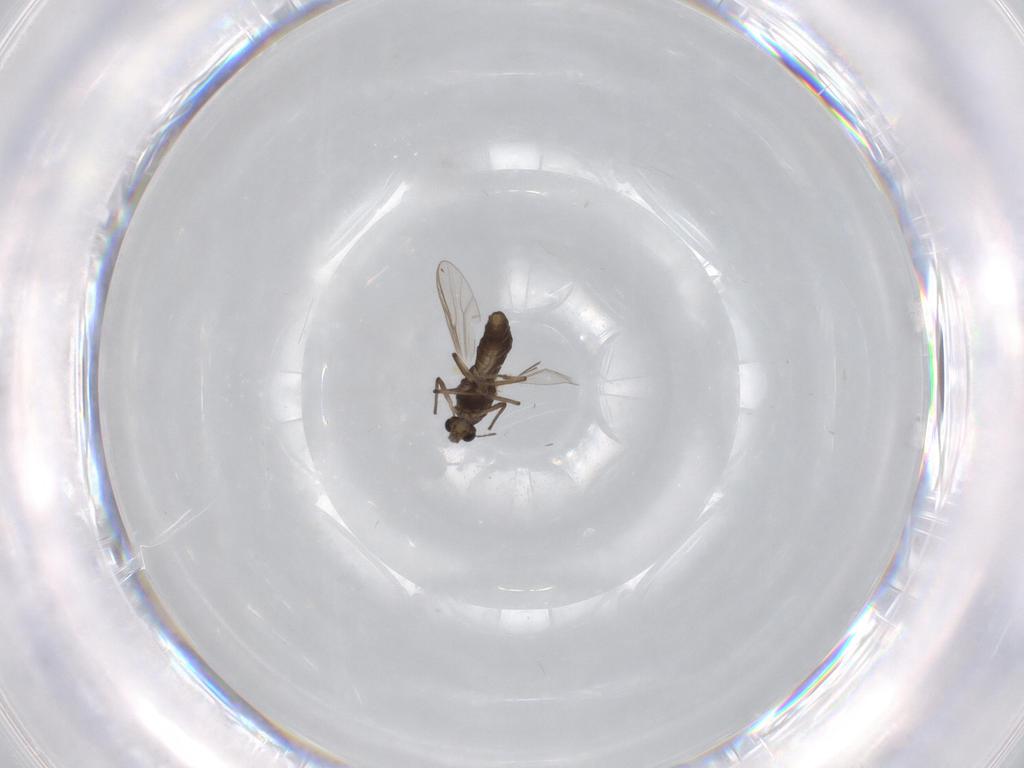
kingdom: Animalia
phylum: Arthropoda
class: Insecta
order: Diptera
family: Chironomidae
